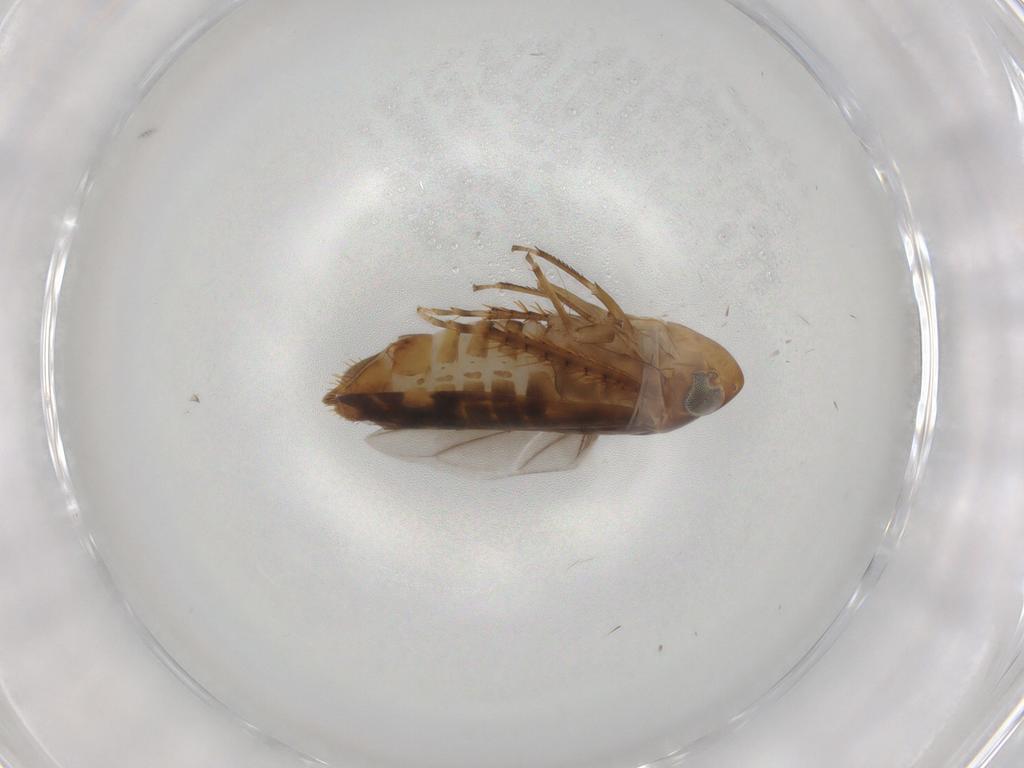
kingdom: Animalia
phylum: Arthropoda
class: Insecta
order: Hemiptera
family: Cicadellidae
